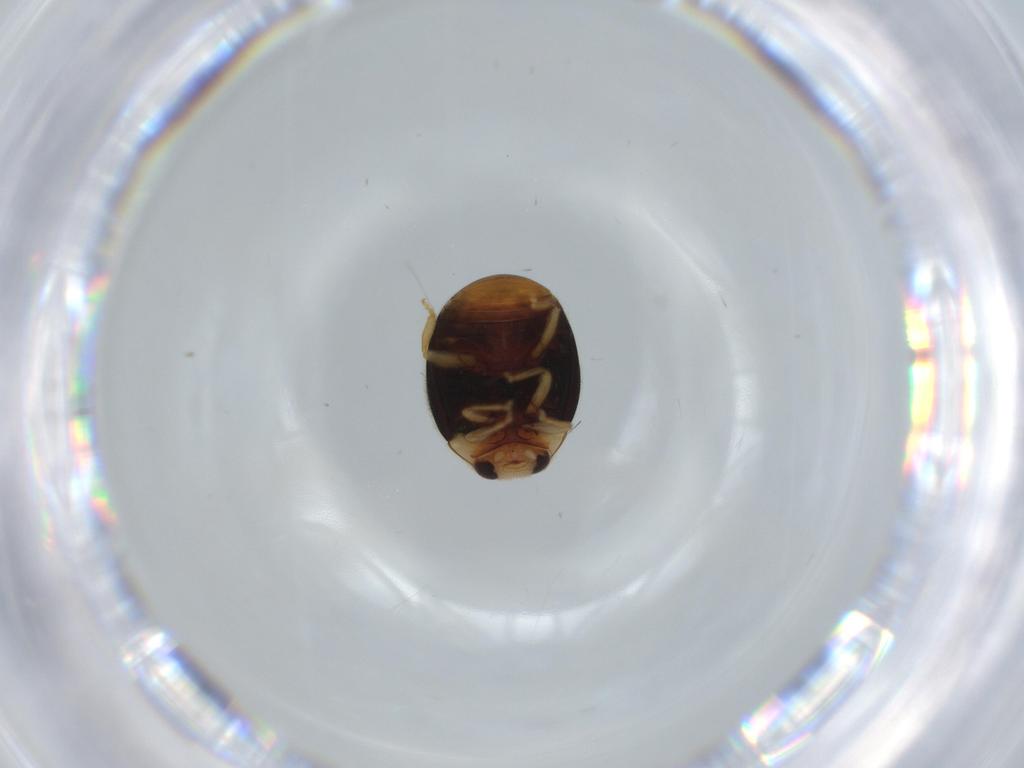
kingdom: Animalia
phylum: Arthropoda
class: Insecta
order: Coleoptera
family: Coccinellidae
